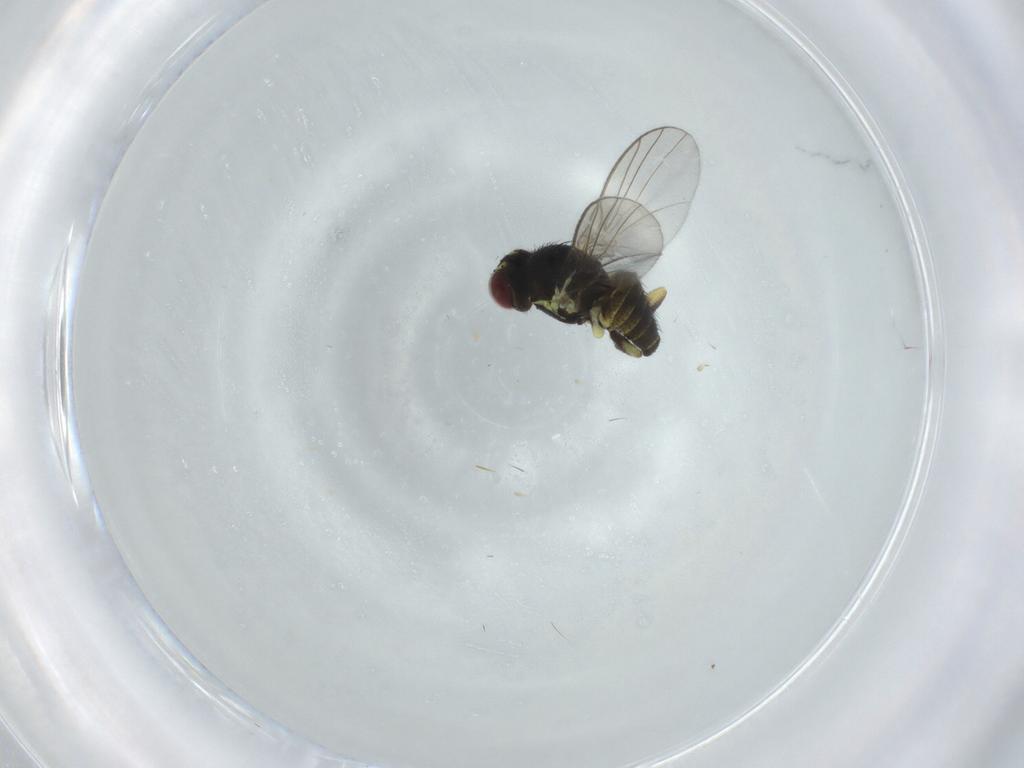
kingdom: Animalia
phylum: Arthropoda
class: Insecta
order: Diptera
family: Agromyzidae
